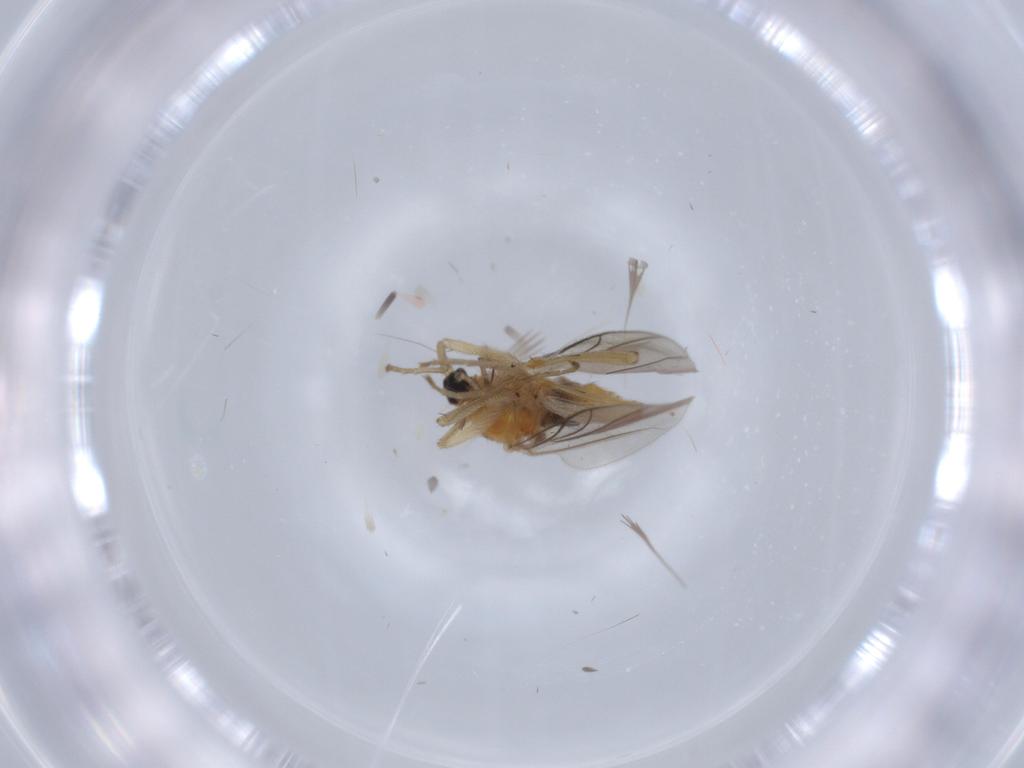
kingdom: Animalia
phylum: Arthropoda
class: Insecta
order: Diptera
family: Hybotidae
